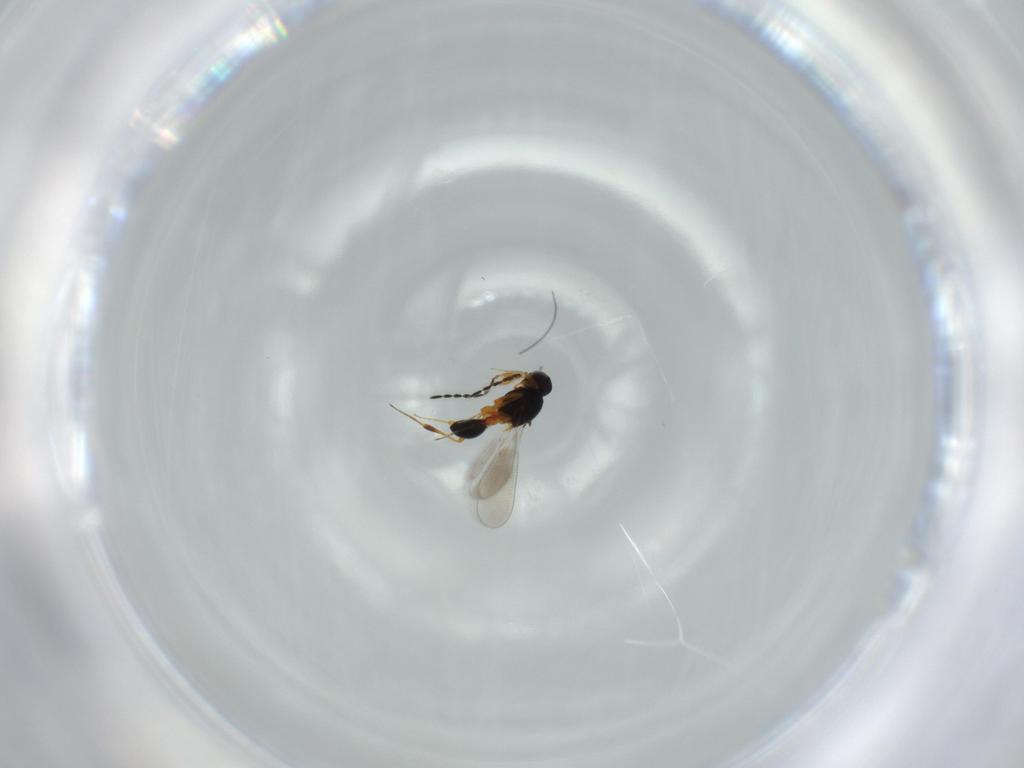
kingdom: Animalia
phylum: Arthropoda
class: Insecta
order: Hymenoptera
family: Platygastridae
